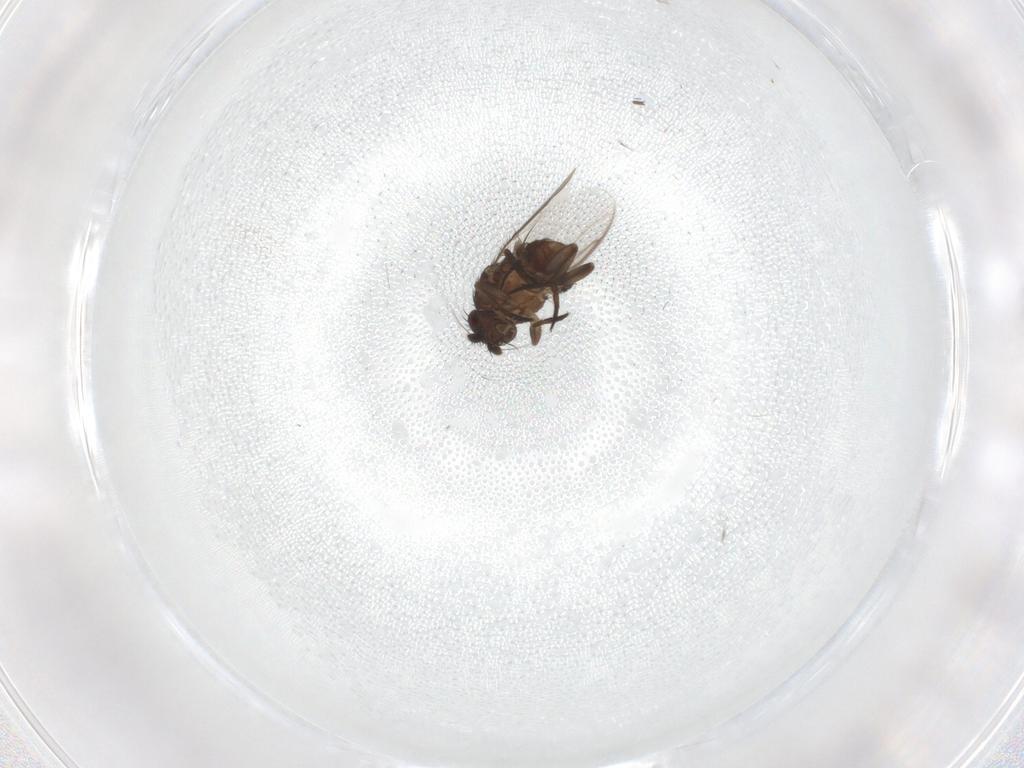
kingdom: Animalia
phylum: Arthropoda
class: Insecta
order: Diptera
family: Sphaeroceridae
